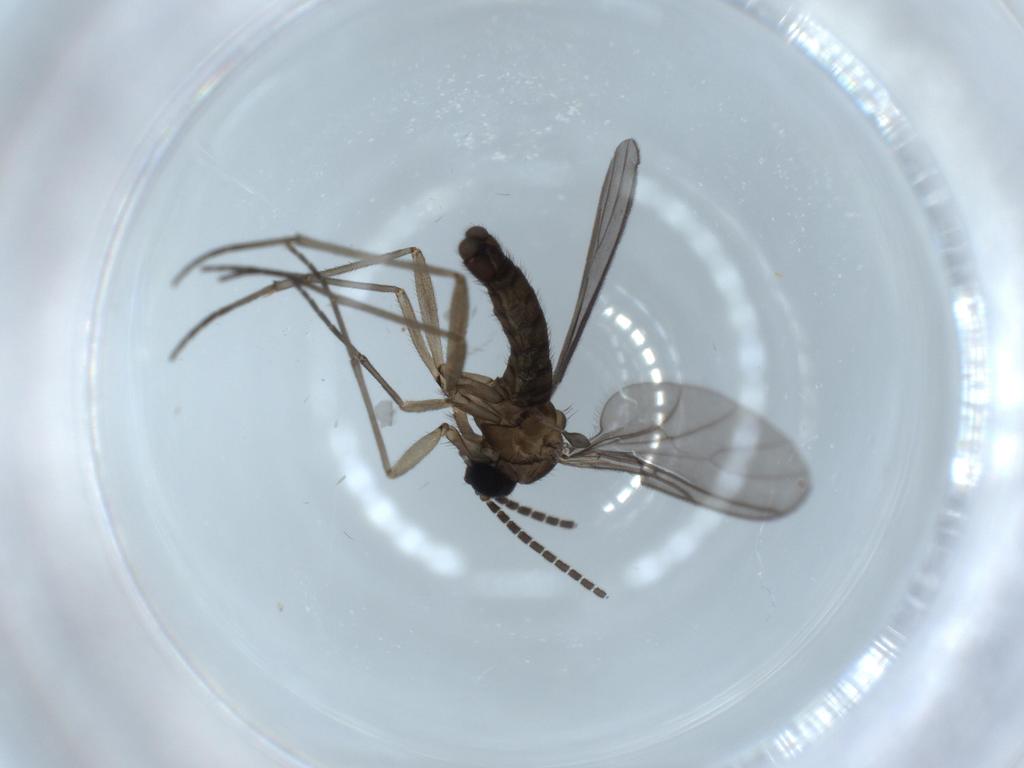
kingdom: Animalia
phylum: Arthropoda
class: Insecta
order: Diptera
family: Sciaridae
